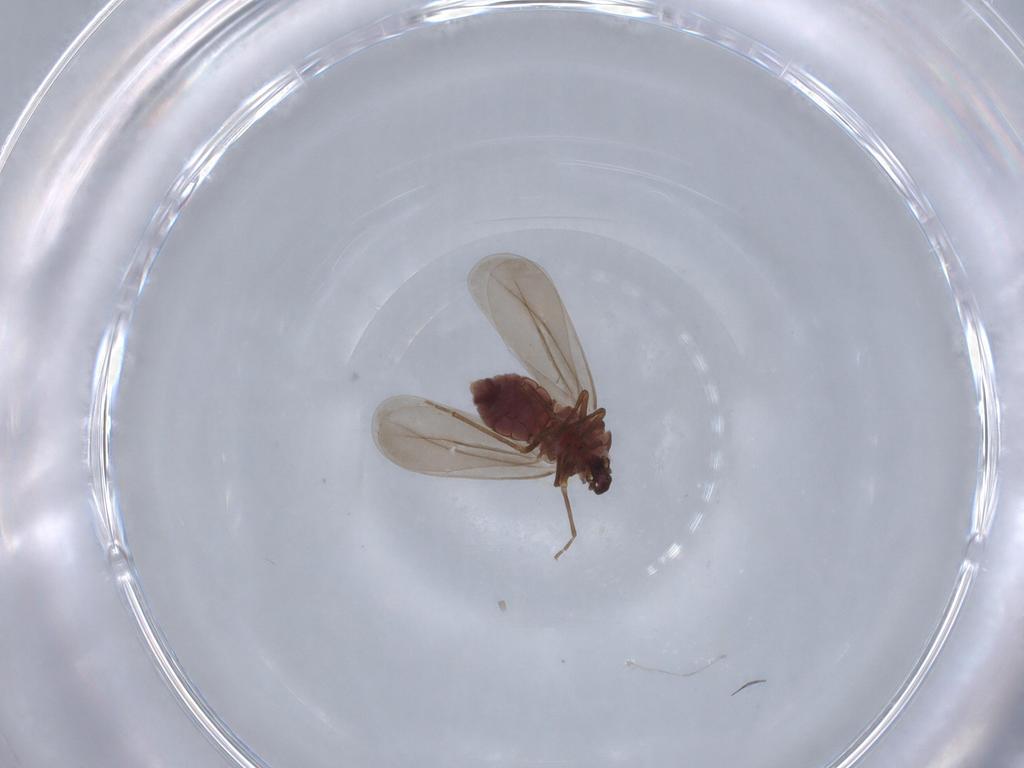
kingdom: Animalia
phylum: Arthropoda
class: Insecta
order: Hemiptera
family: Aleyrodidae
